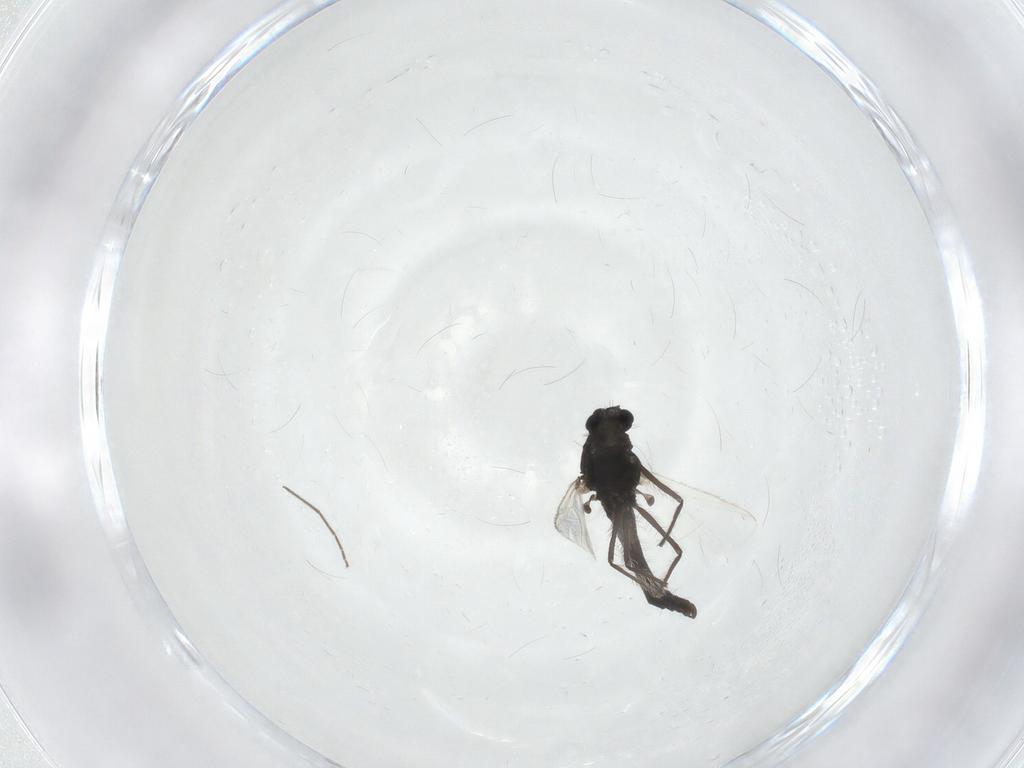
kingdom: Animalia
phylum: Arthropoda
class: Insecta
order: Diptera
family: Chironomidae
